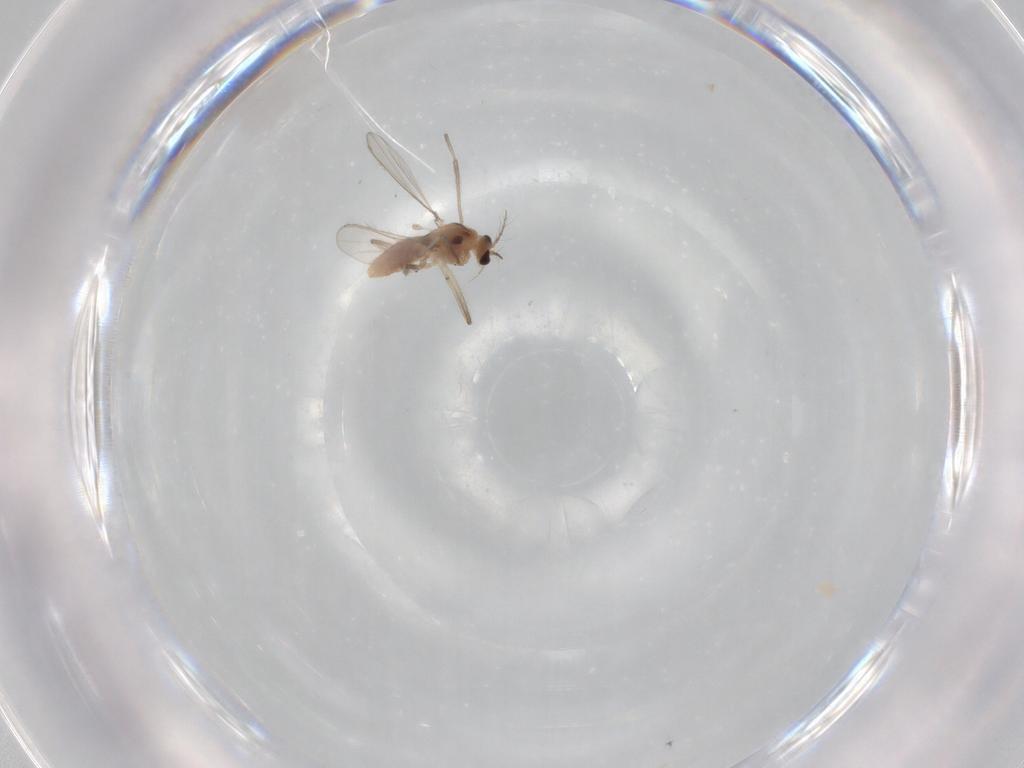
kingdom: Animalia
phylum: Arthropoda
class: Insecta
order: Diptera
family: Chironomidae
